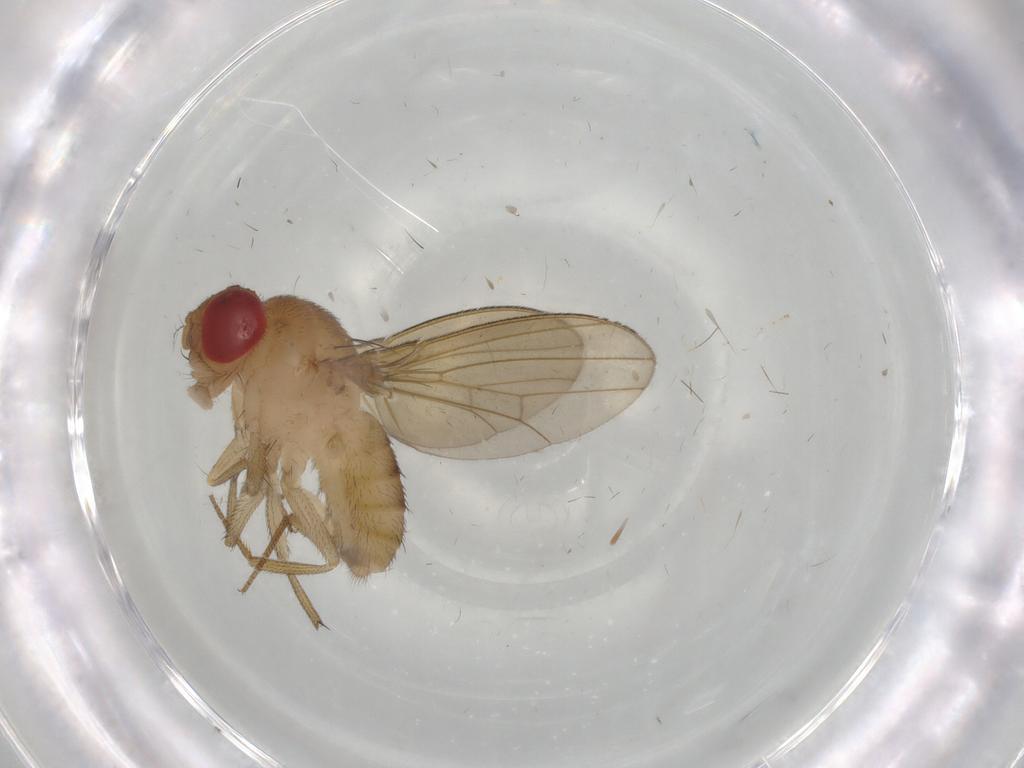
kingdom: Animalia
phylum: Arthropoda
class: Insecta
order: Diptera
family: Drosophilidae
